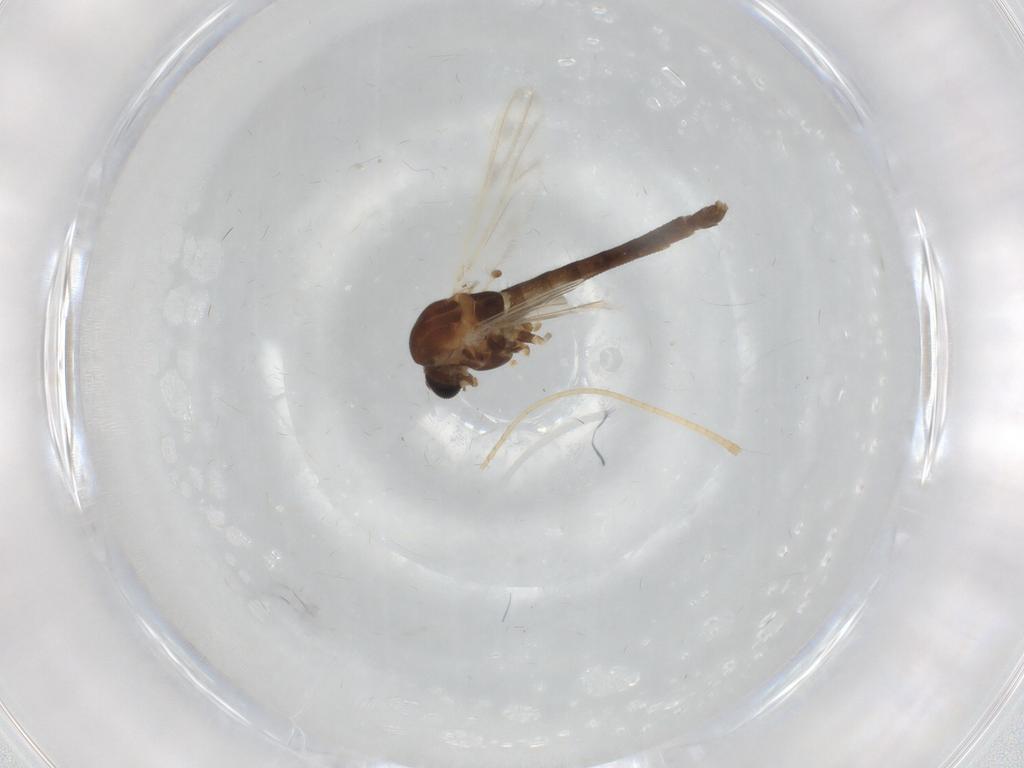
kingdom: Animalia
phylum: Arthropoda
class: Insecta
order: Diptera
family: Chironomidae
